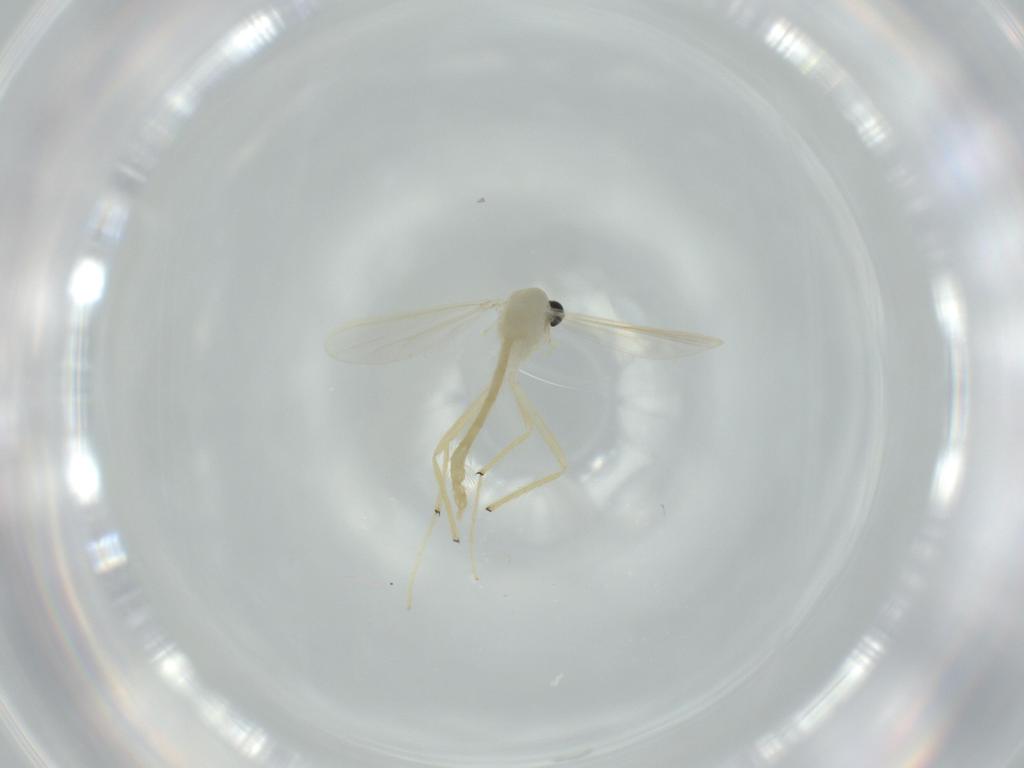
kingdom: Animalia
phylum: Arthropoda
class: Insecta
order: Diptera
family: Chironomidae
